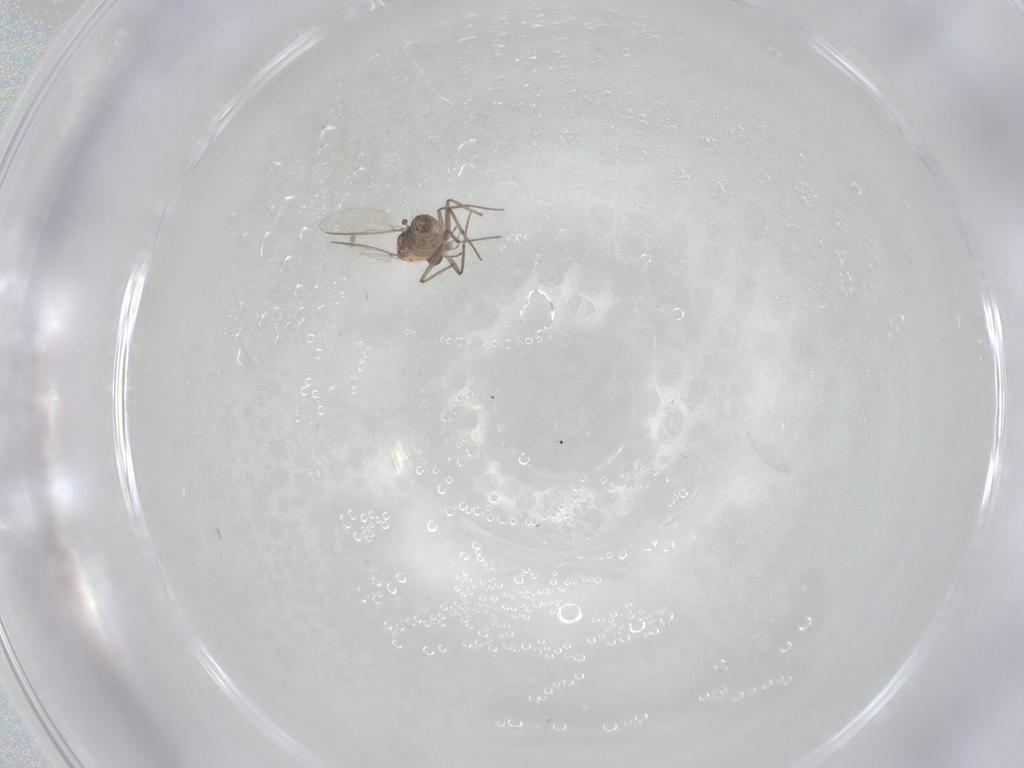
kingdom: Animalia
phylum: Arthropoda
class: Insecta
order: Diptera
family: Chironomidae
